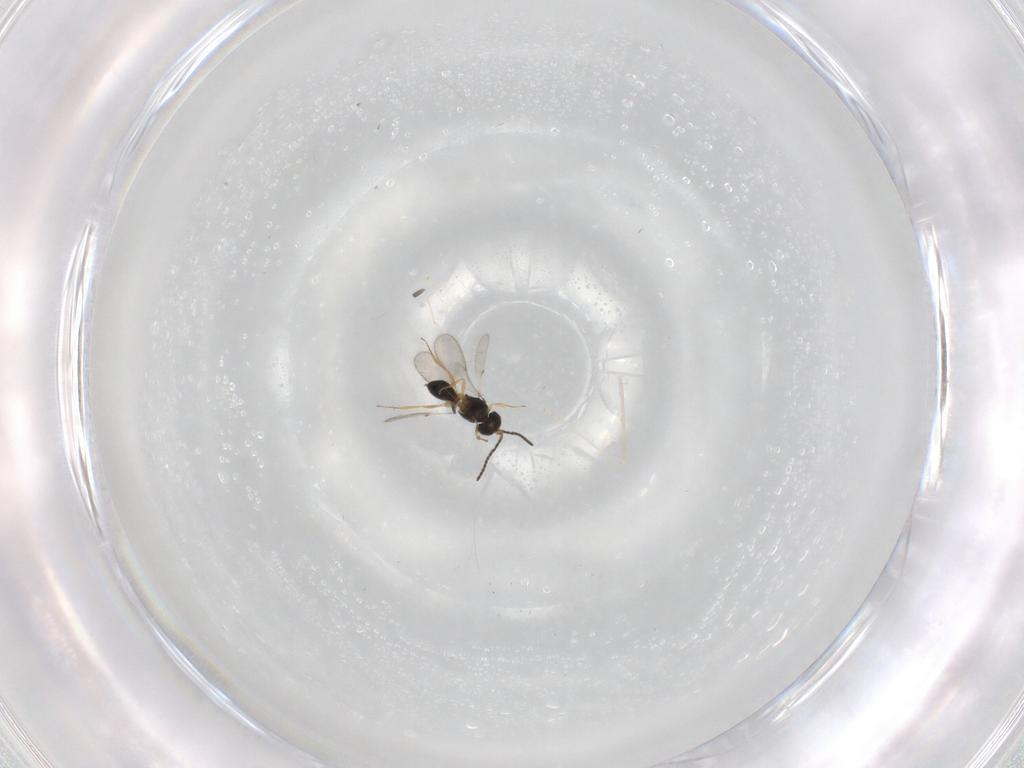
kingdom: Animalia
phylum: Arthropoda
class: Insecta
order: Hymenoptera
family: Scelionidae
